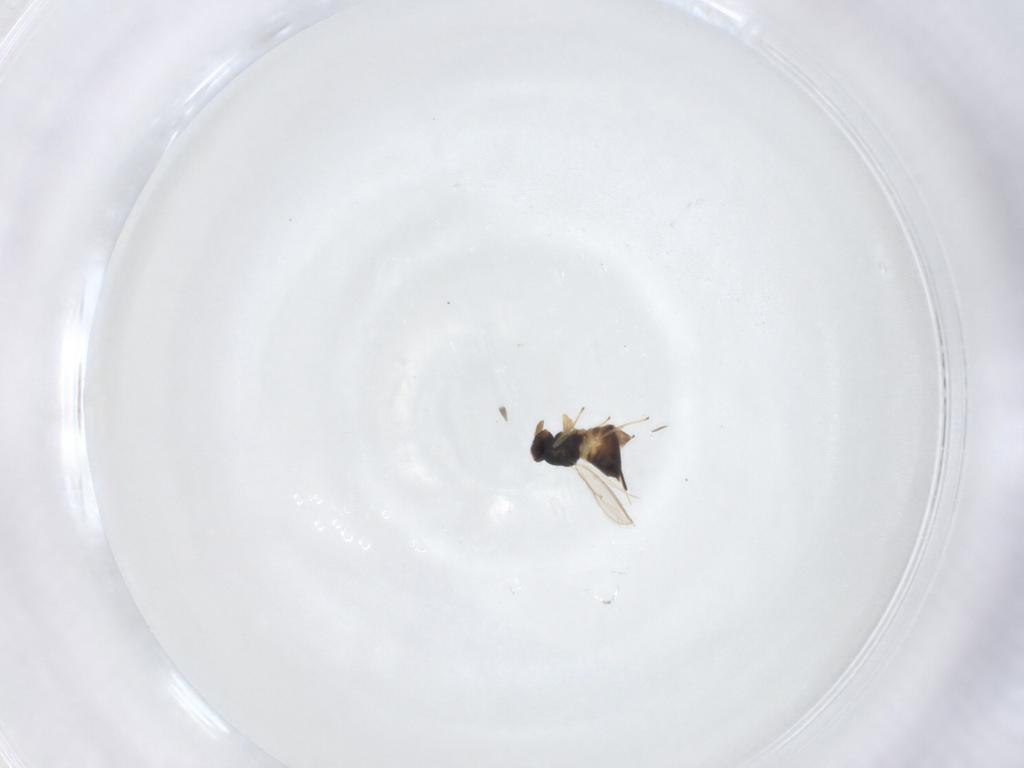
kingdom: Animalia
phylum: Arthropoda
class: Insecta
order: Hymenoptera
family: Eulophidae
